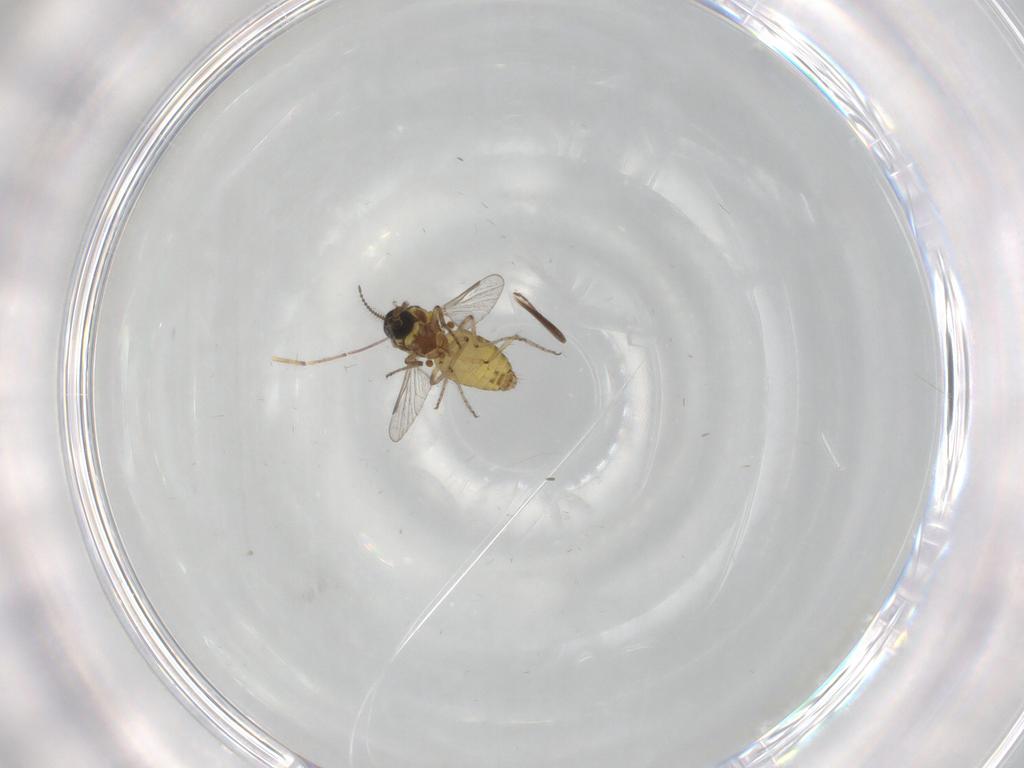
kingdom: Animalia
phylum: Arthropoda
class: Insecta
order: Diptera
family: Ceratopogonidae
